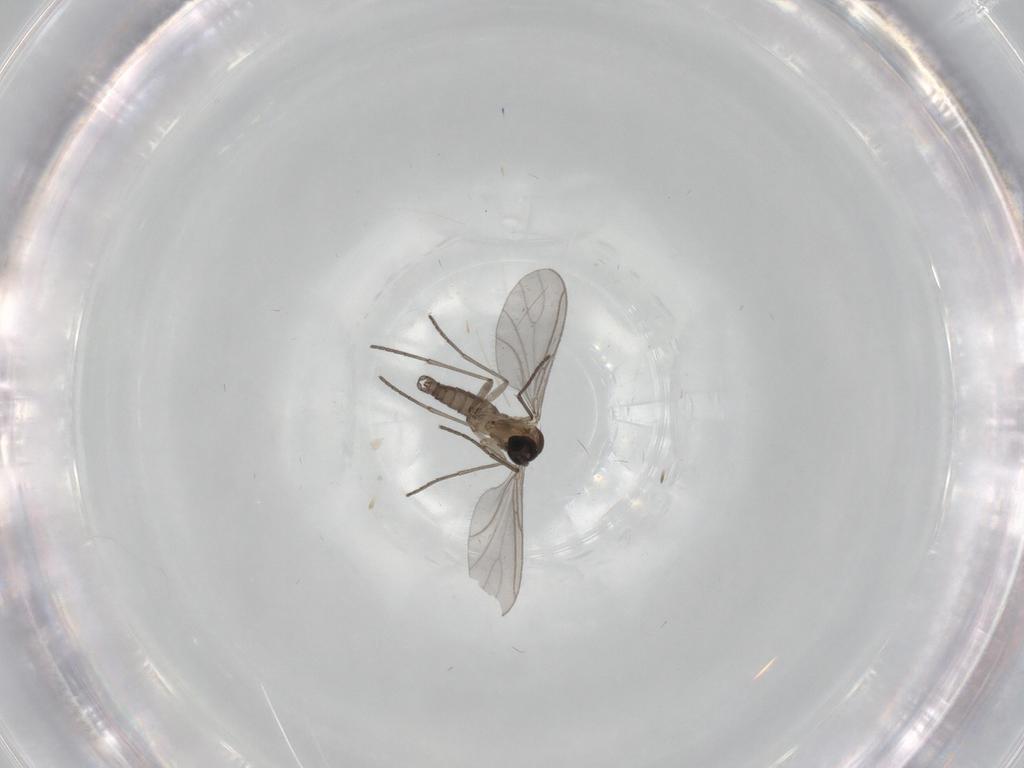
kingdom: Animalia
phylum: Arthropoda
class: Insecta
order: Diptera
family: Sciaridae
